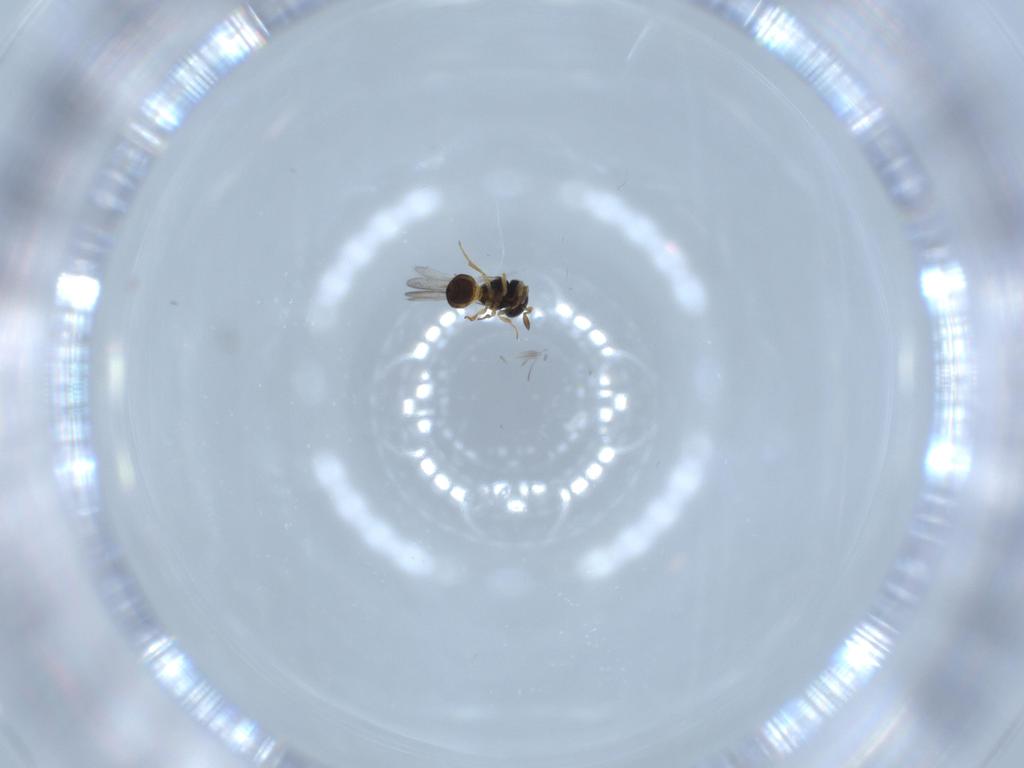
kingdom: Animalia
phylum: Arthropoda
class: Insecta
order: Hymenoptera
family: Scelionidae
